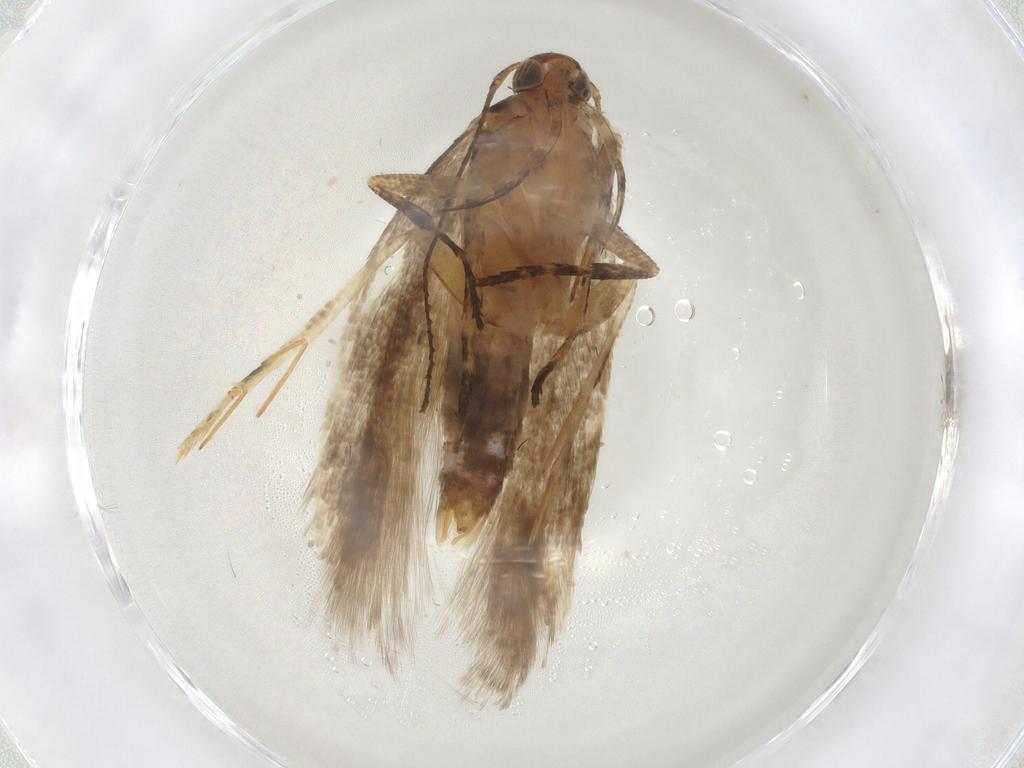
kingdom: Animalia
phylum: Arthropoda
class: Insecta
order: Lepidoptera
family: Gelechiidae
